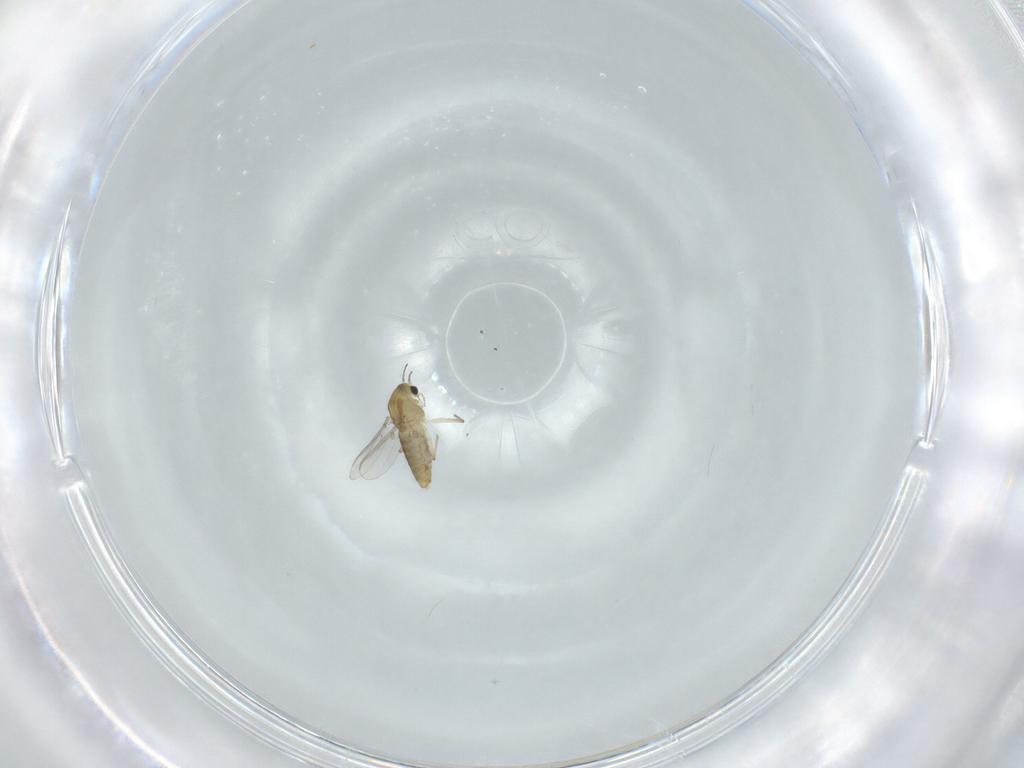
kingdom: Animalia
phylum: Arthropoda
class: Insecta
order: Diptera
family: Chironomidae
